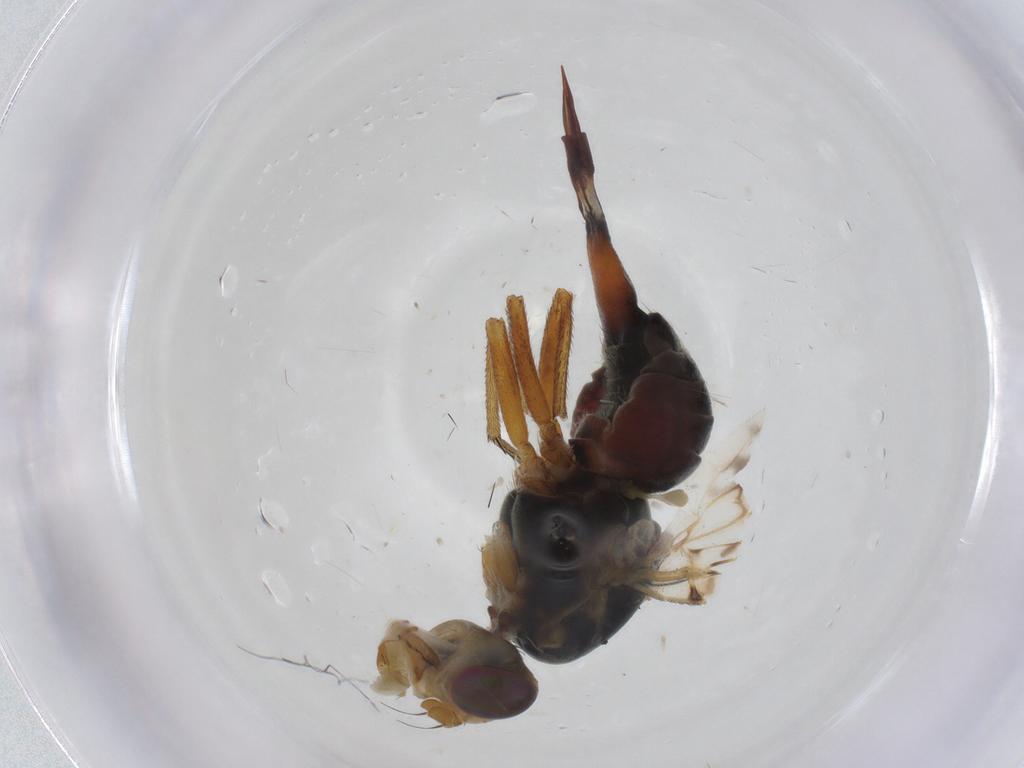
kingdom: Animalia
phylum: Arthropoda
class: Insecta
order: Diptera
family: Tephritidae
